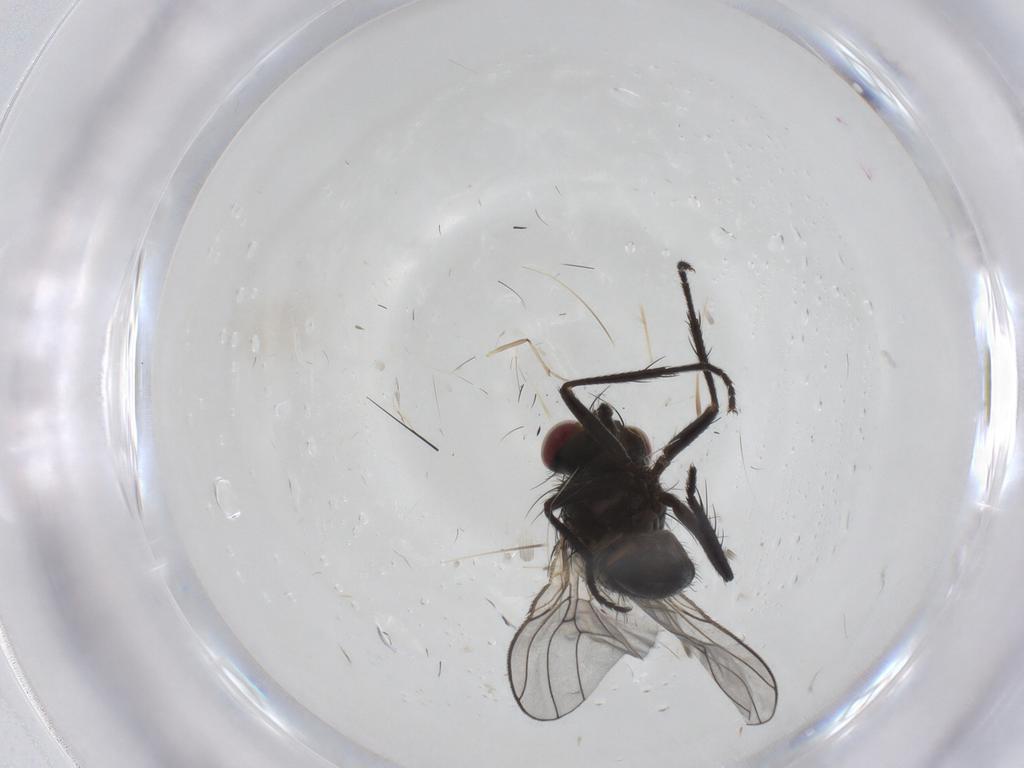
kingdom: Animalia
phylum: Arthropoda
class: Insecta
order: Diptera
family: Muscidae
